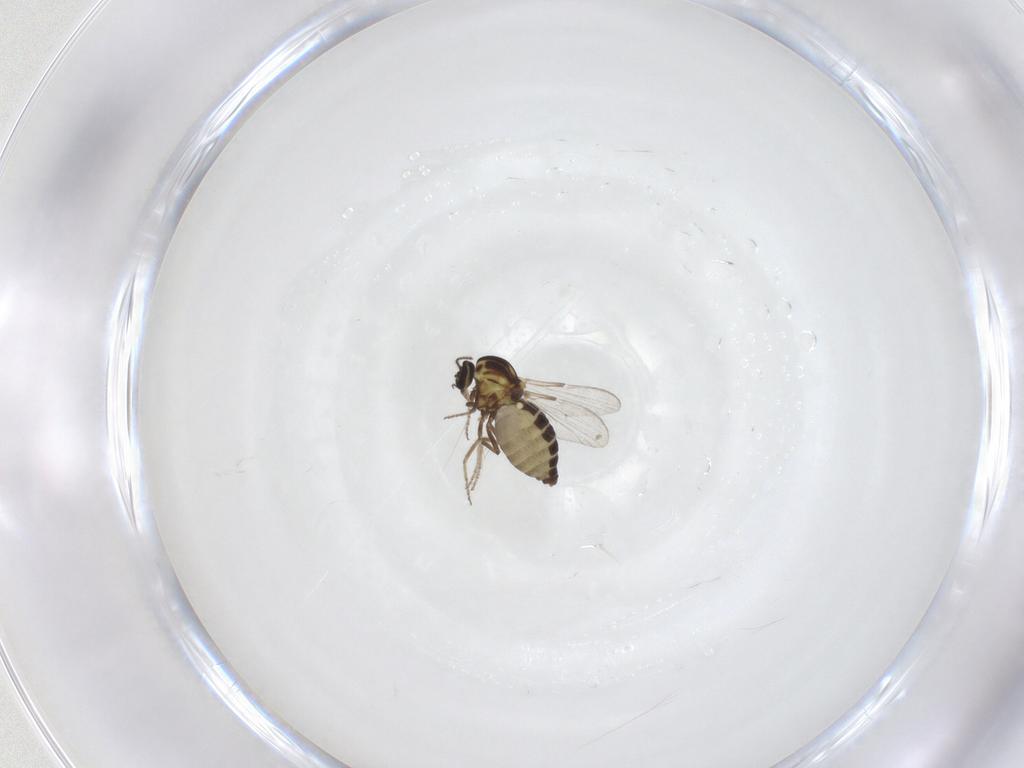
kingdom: Animalia
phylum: Arthropoda
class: Insecta
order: Diptera
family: Ceratopogonidae
